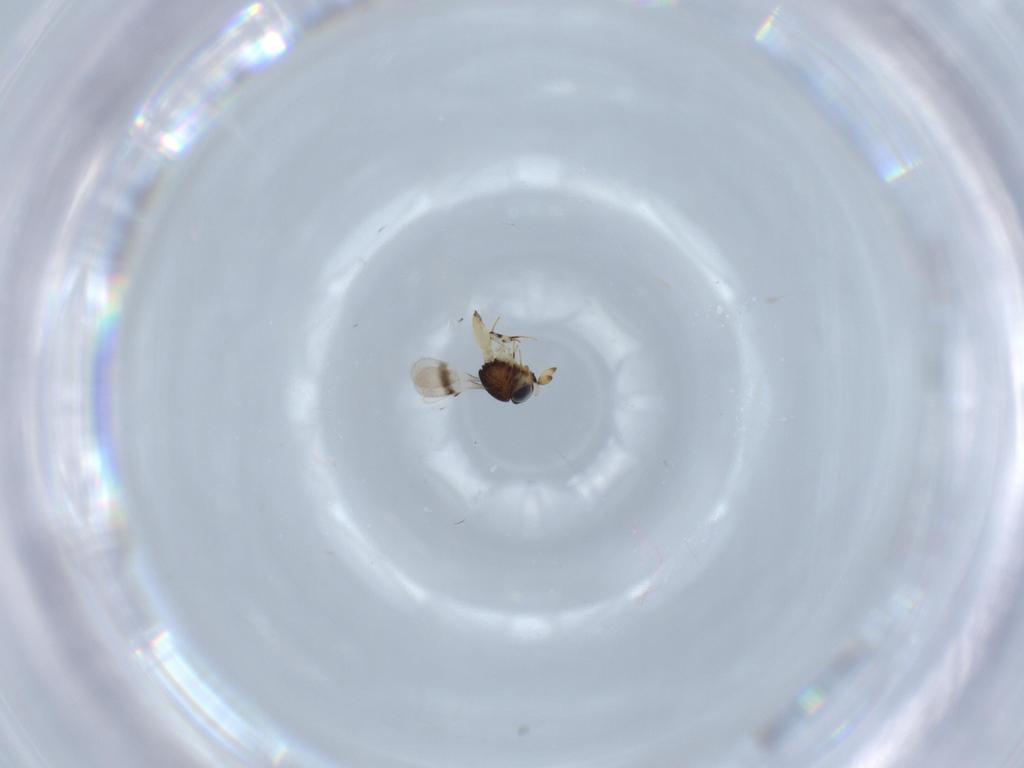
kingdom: Animalia
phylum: Arthropoda
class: Insecta
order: Hymenoptera
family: Scelionidae
